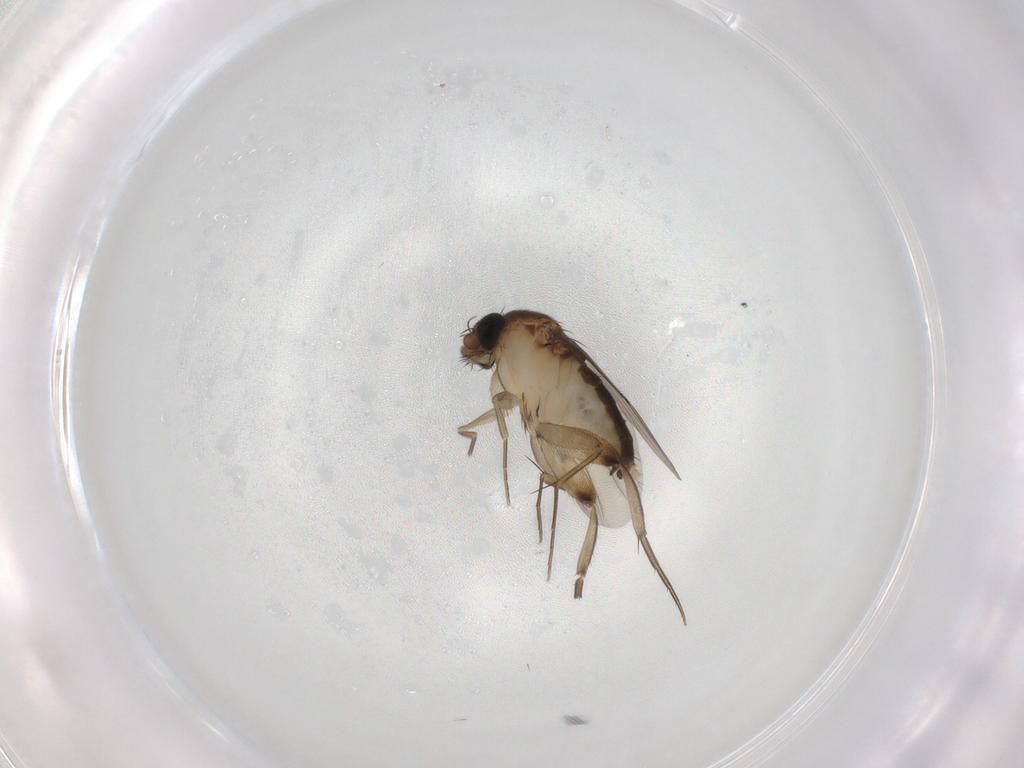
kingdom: Animalia
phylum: Arthropoda
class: Insecta
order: Diptera
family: Phoridae
